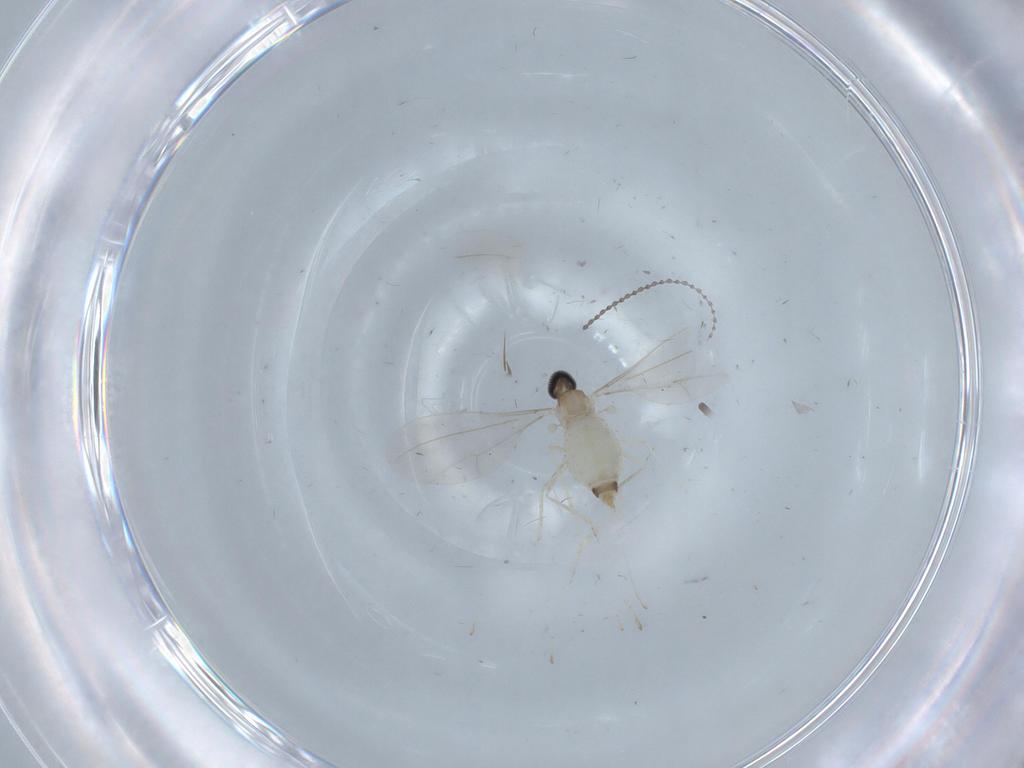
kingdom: Animalia
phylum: Arthropoda
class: Insecta
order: Diptera
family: Cecidomyiidae
